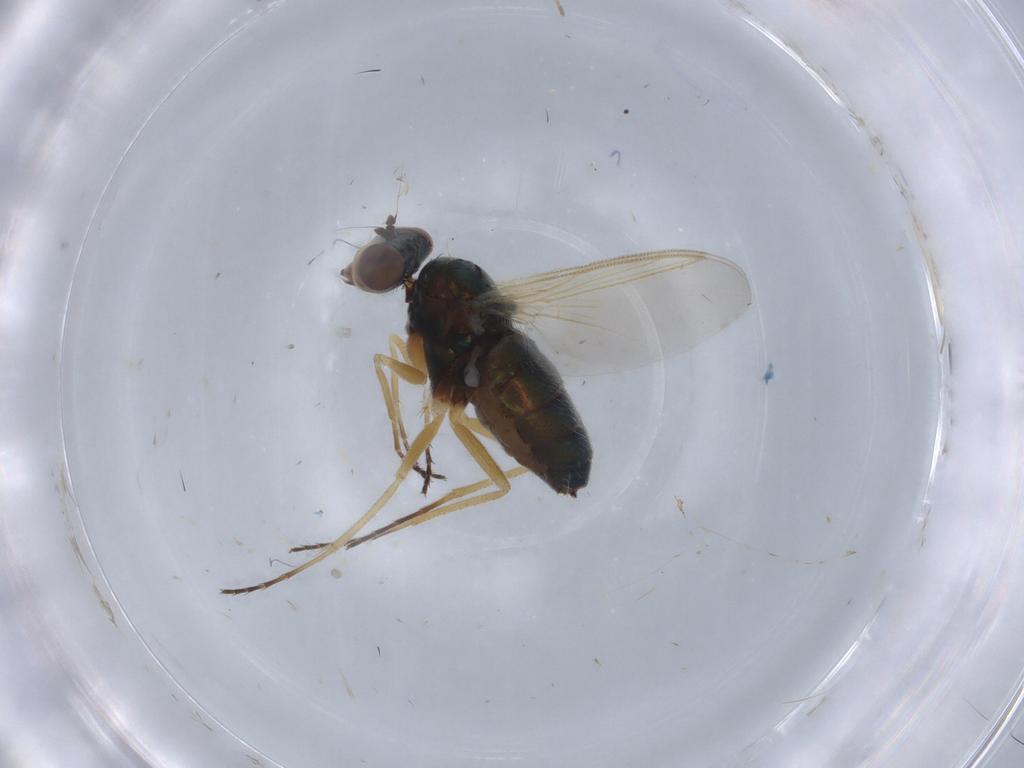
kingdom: Animalia
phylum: Arthropoda
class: Insecta
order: Diptera
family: Dolichopodidae
